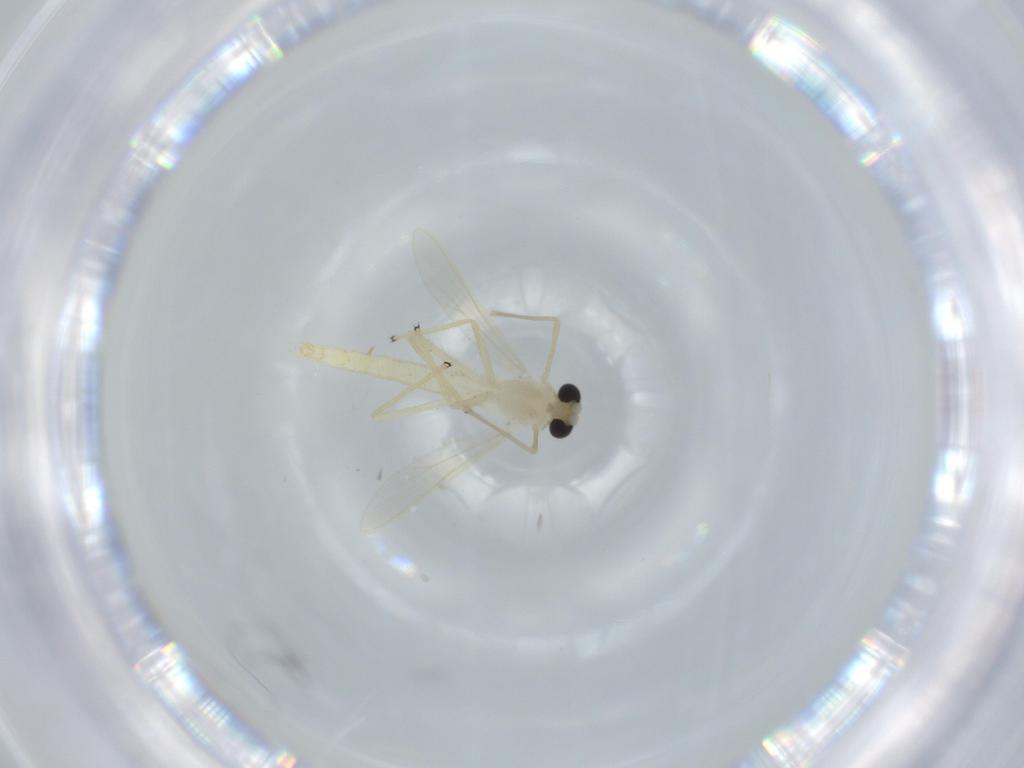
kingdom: Animalia
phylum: Arthropoda
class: Insecta
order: Diptera
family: Chironomidae
